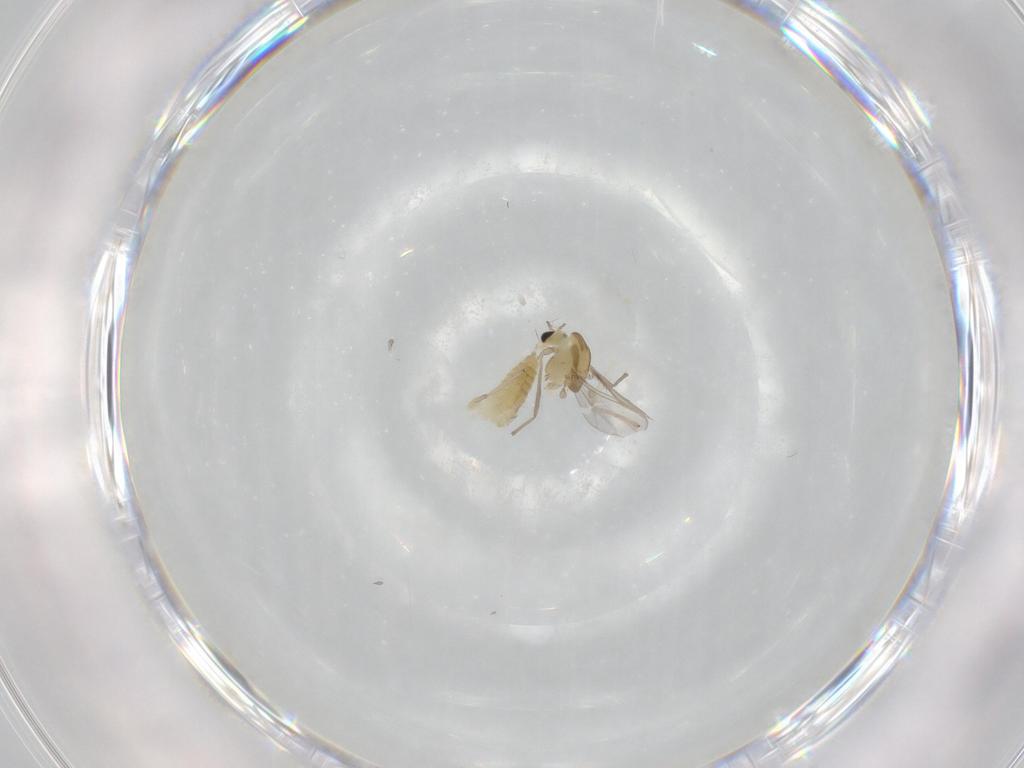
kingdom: Animalia
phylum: Arthropoda
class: Insecta
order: Diptera
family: Chironomidae
